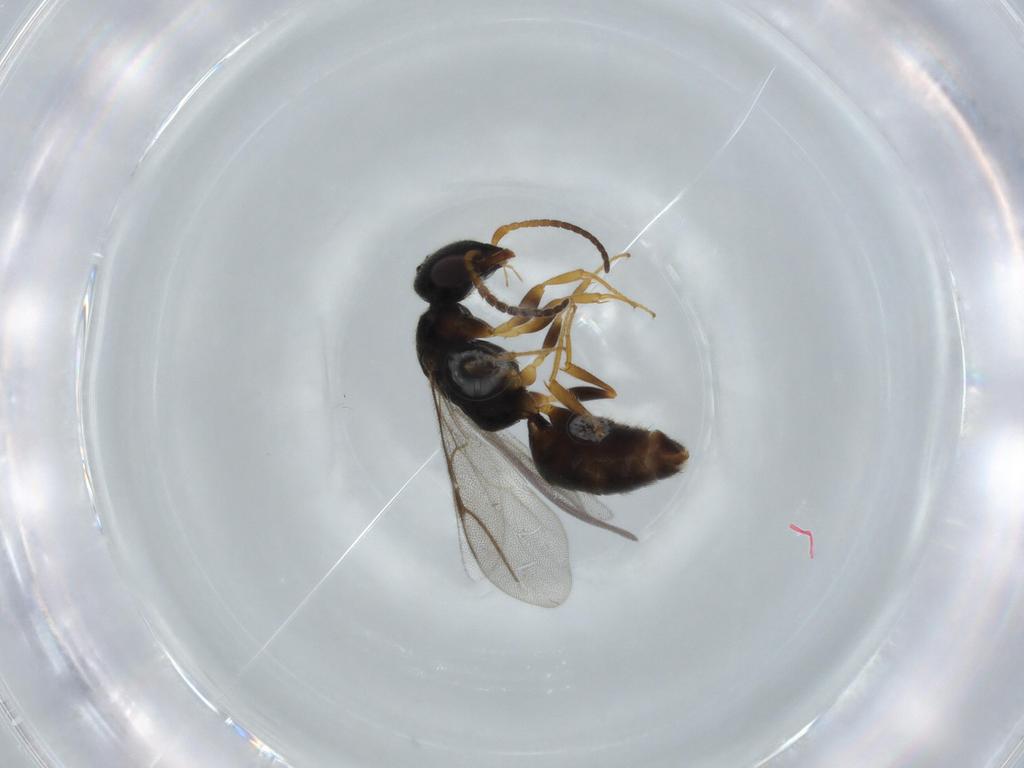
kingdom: Animalia
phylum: Arthropoda
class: Insecta
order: Hymenoptera
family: Bethylidae
